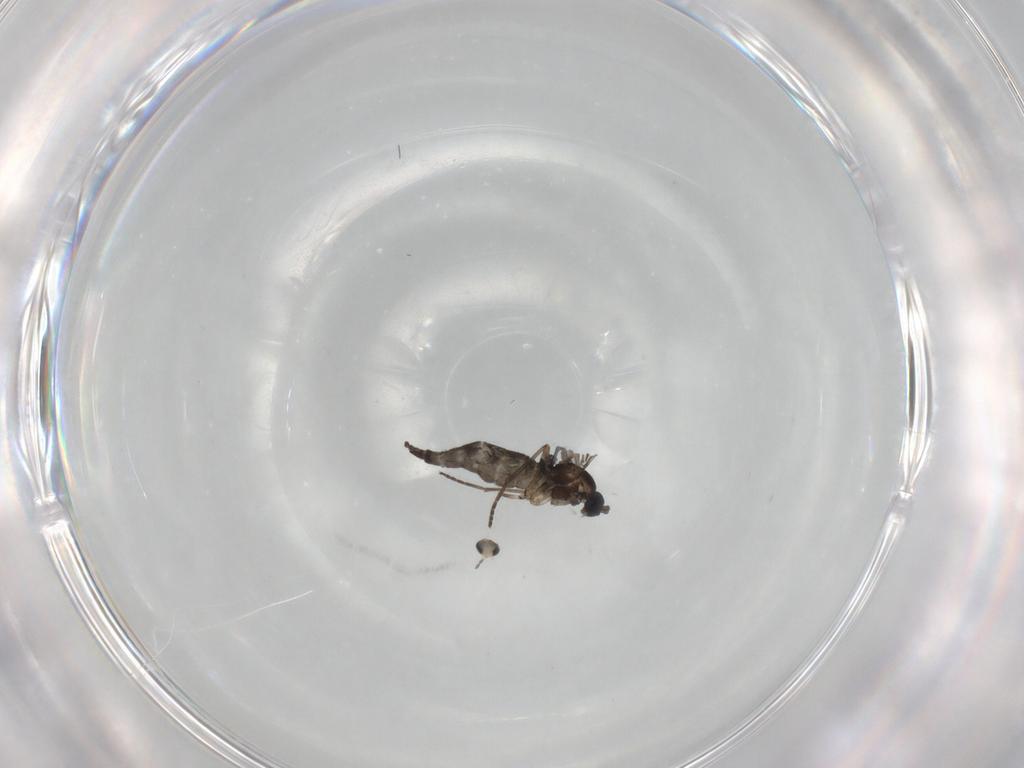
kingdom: Animalia
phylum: Arthropoda
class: Insecta
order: Diptera
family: Cecidomyiidae
